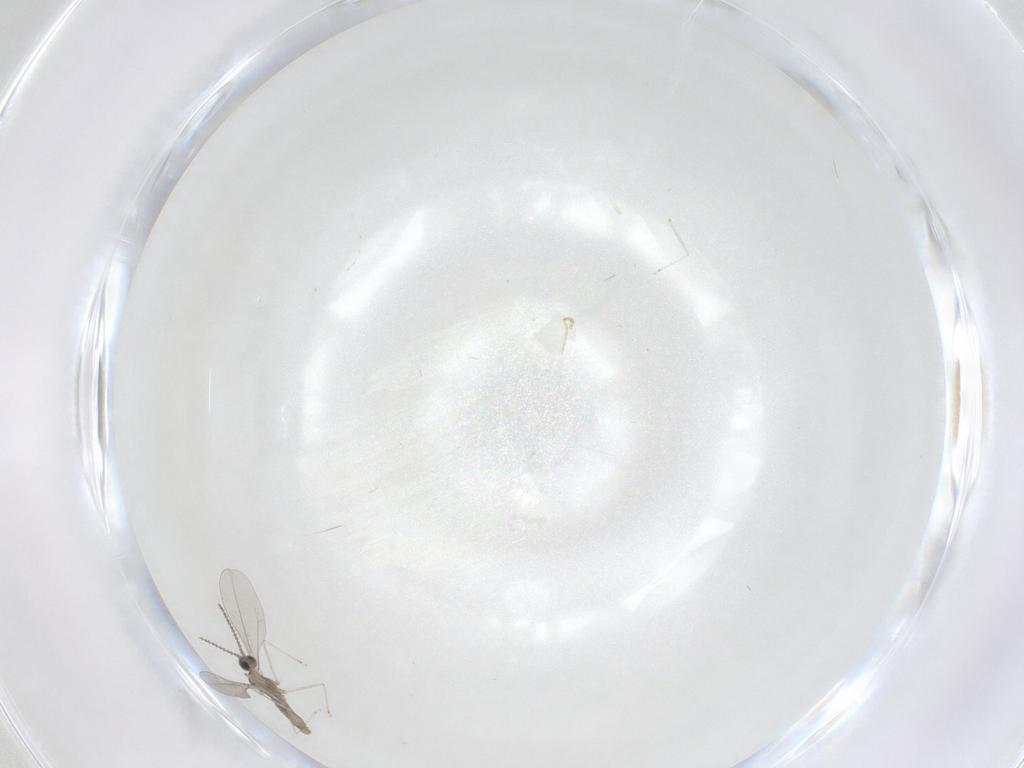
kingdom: Animalia
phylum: Arthropoda
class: Insecta
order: Diptera
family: Cecidomyiidae
